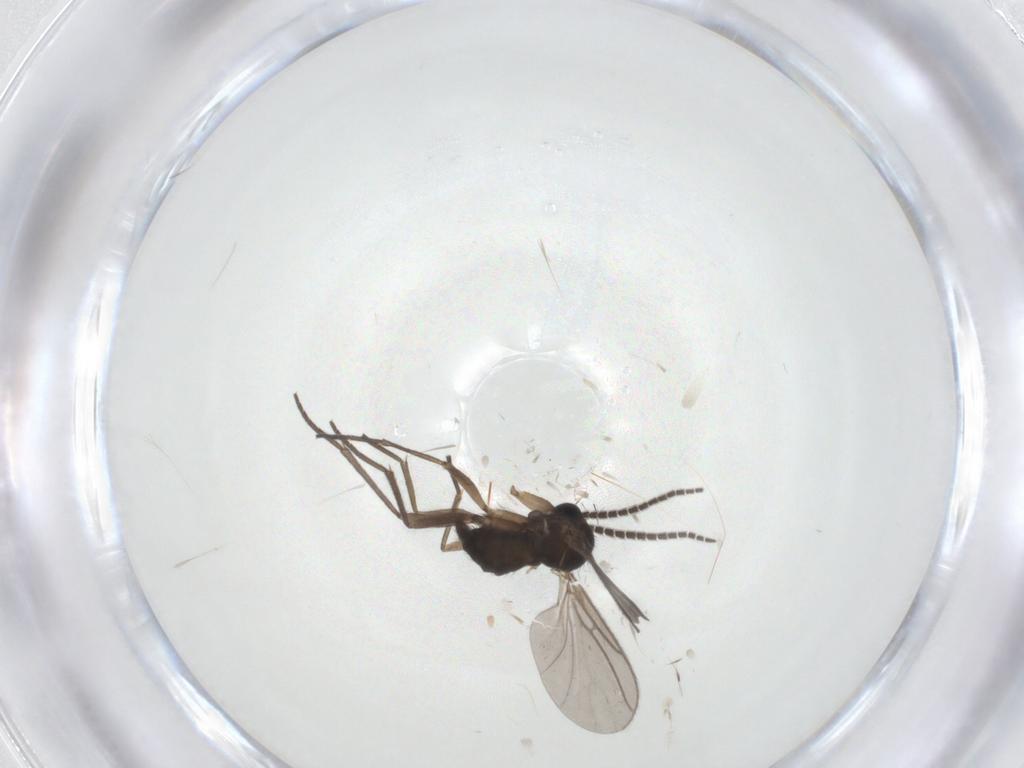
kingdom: Animalia
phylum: Arthropoda
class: Insecta
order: Diptera
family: Sciaridae
